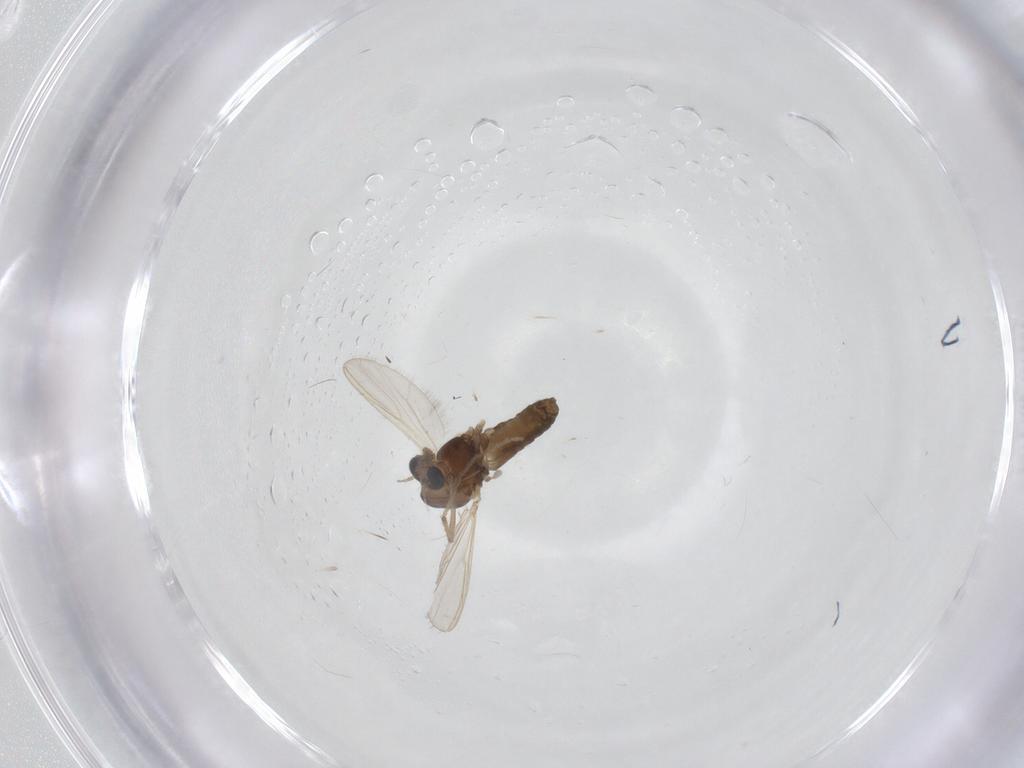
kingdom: Animalia
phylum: Arthropoda
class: Insecta
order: Diptera
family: Chironomidae
